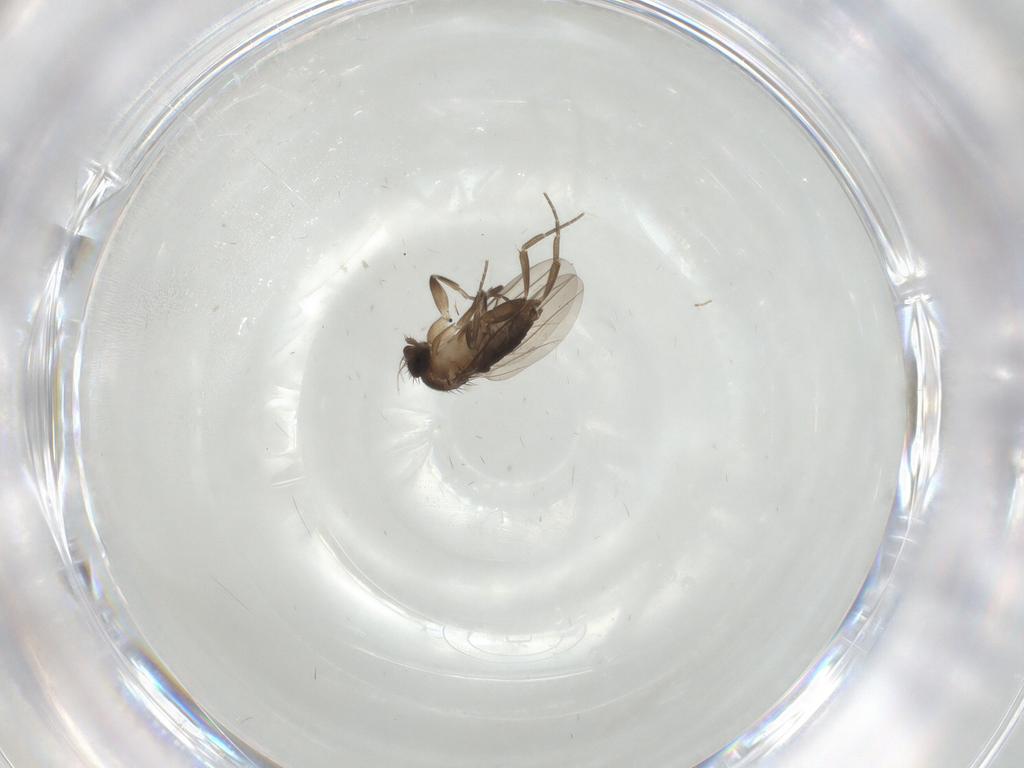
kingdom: Animalia
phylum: Arthropoda
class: Insecta
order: Diptera
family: Phoridae
